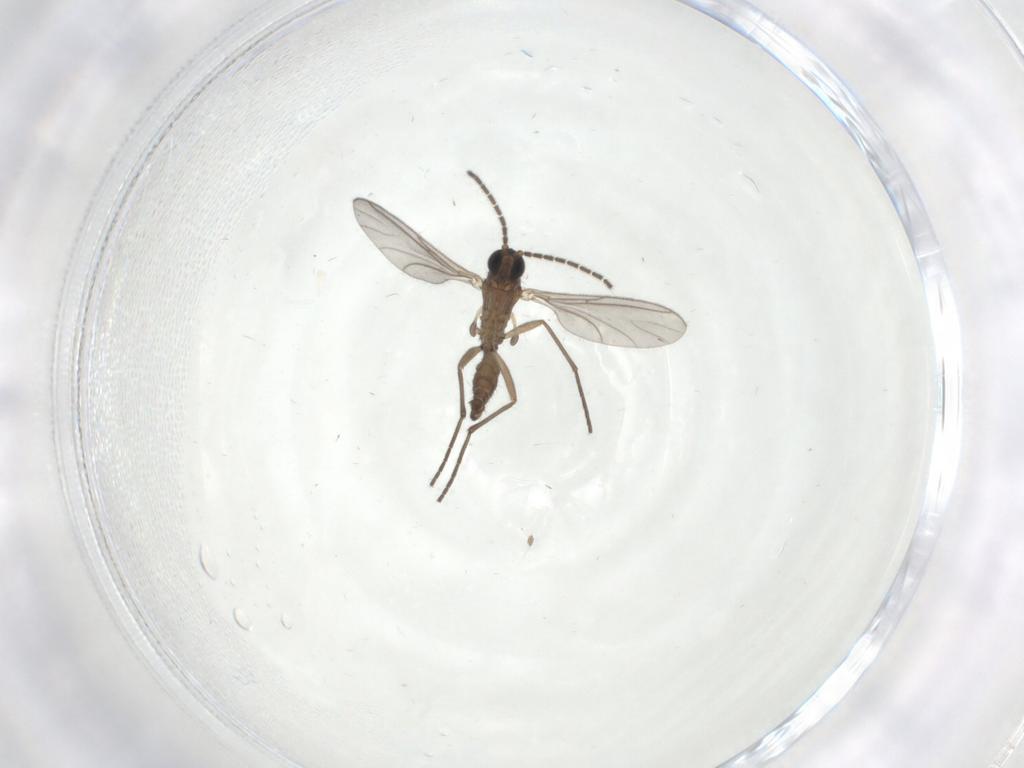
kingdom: Animalia
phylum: Arthropoda
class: Insecta
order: Diptera
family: Sciaridae
